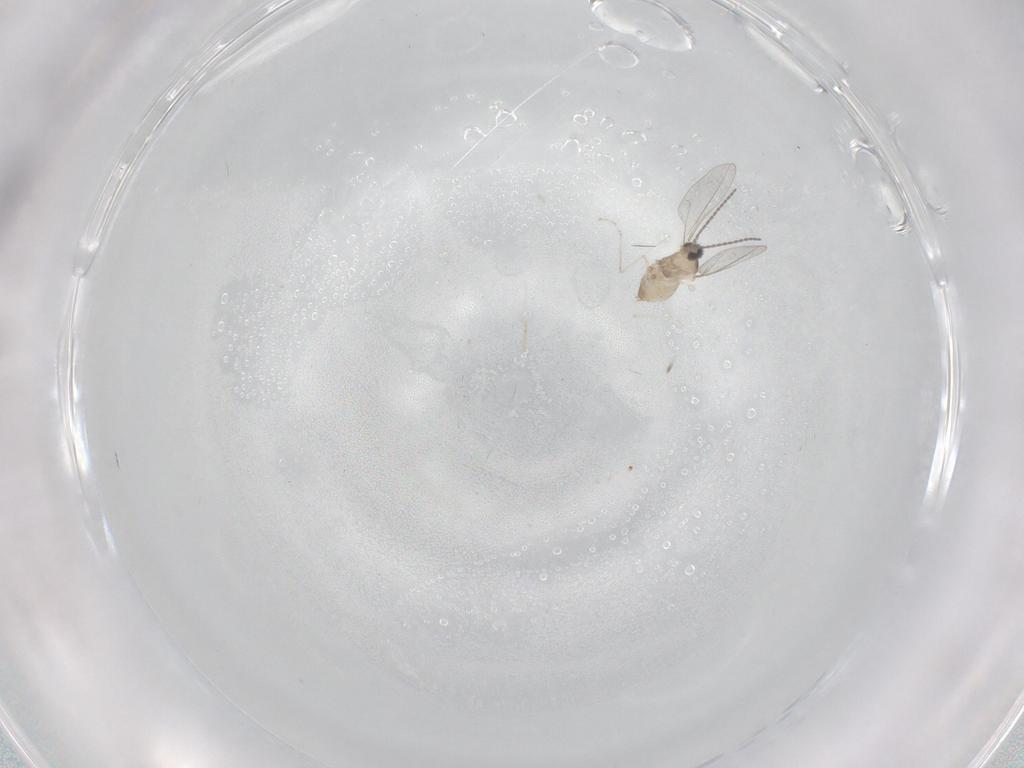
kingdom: Animalia
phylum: Arthropoda
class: Insecta
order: Diptera
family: Cecidomyiidae
